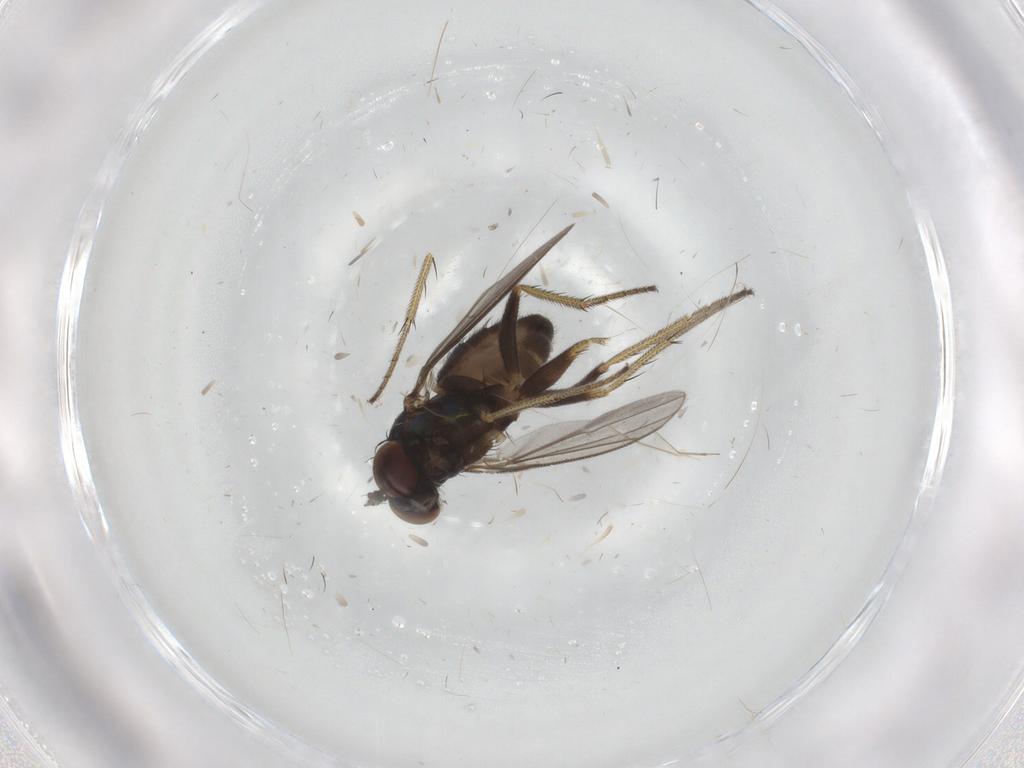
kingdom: Animalia
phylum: Arthropoda
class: Insecta
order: Diptera
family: Sciaridae
